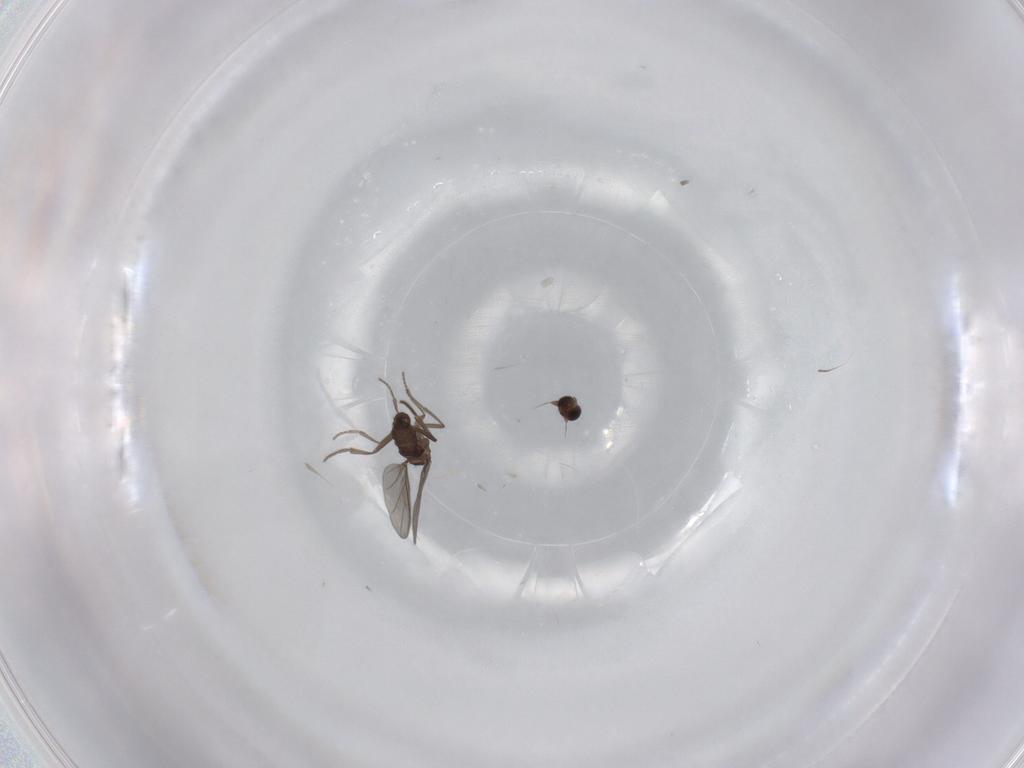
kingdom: Animalia
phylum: Arthropoda
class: Insecta
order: Diptera
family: Phoridae
